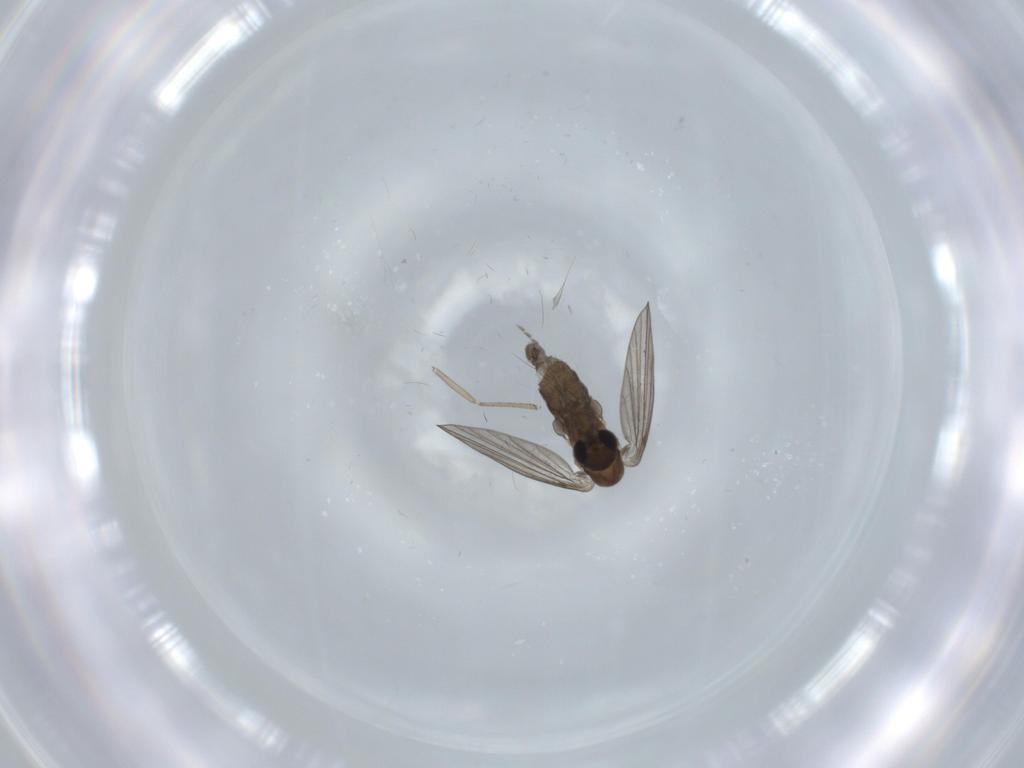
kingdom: Animalia
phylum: Arthropoda
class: Insecta
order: Diptera
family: Psychodidae
